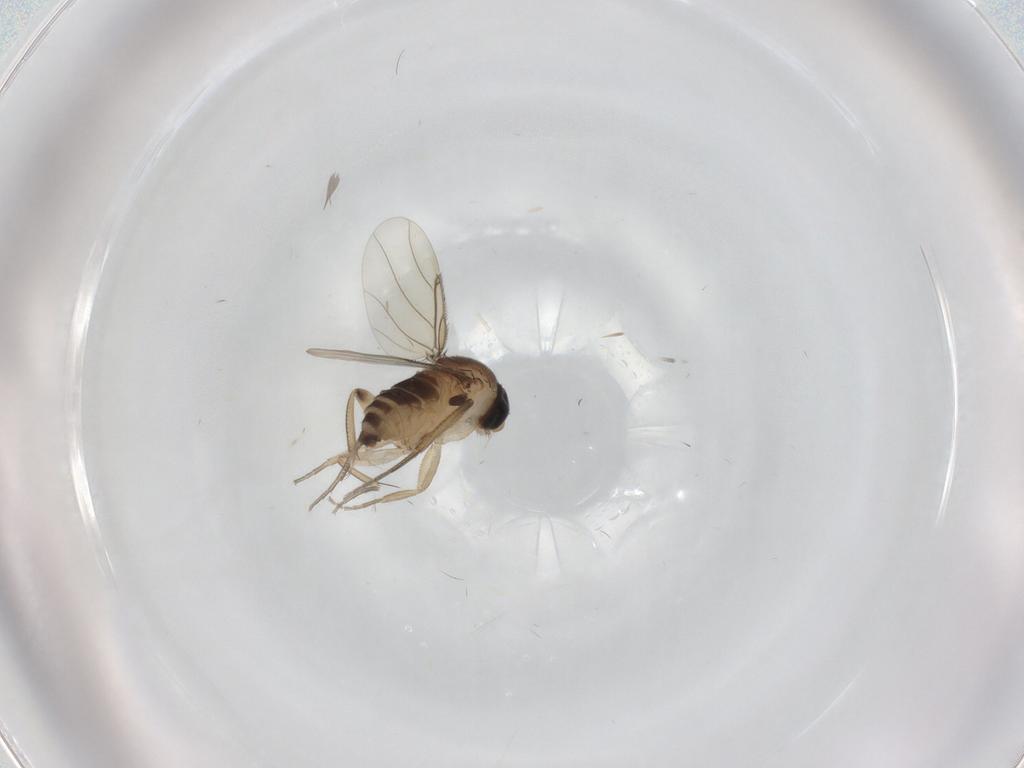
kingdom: Animalia
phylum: Arthropoda
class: Insecta
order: Diptera
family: Phoridae
